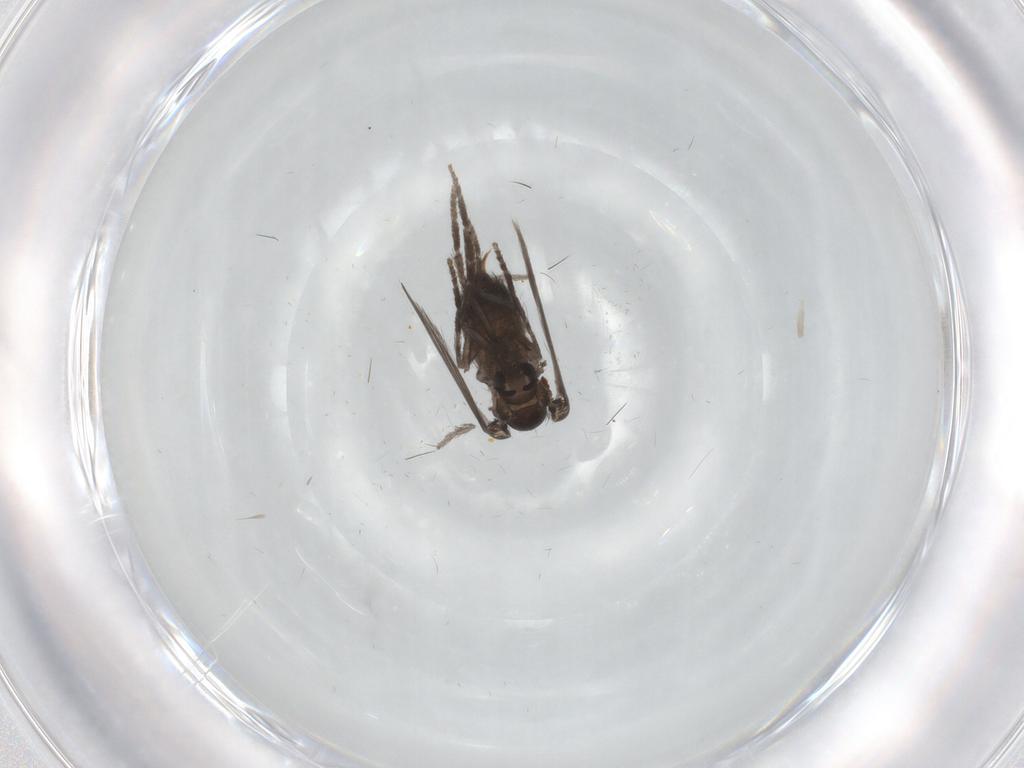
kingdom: Animalia
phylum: Arthropoda
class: Insecta
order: Diptera
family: Psychodidae
